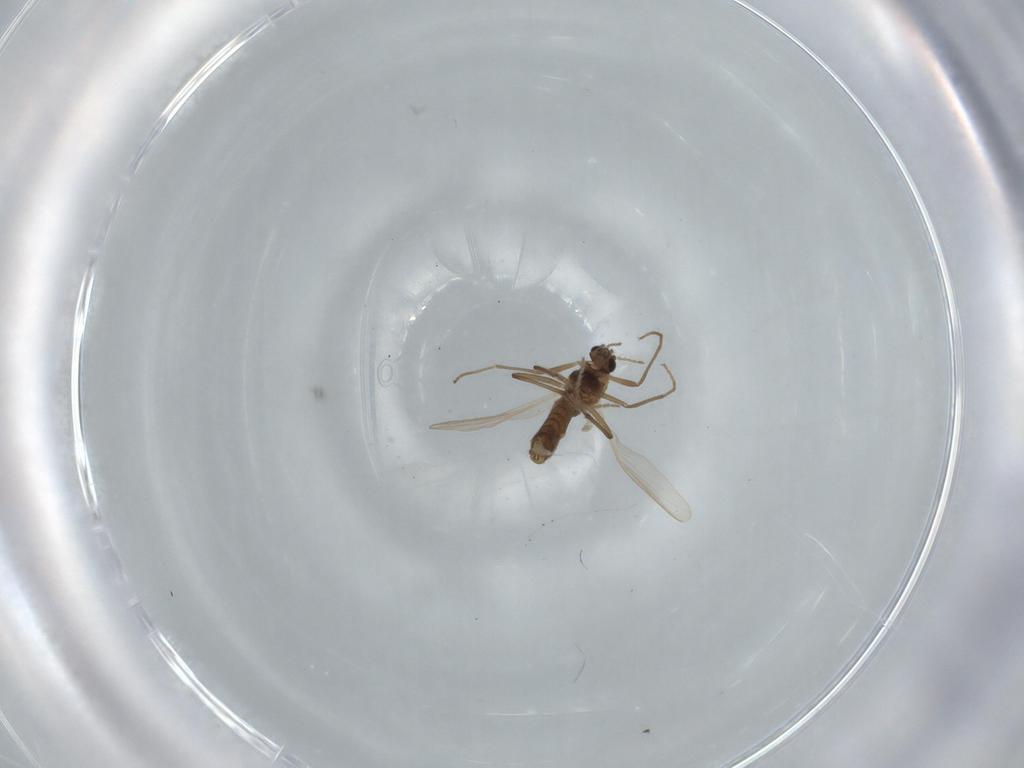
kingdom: Animalia
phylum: Arthropoda
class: Insecta
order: Diptera
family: Chironomidae
